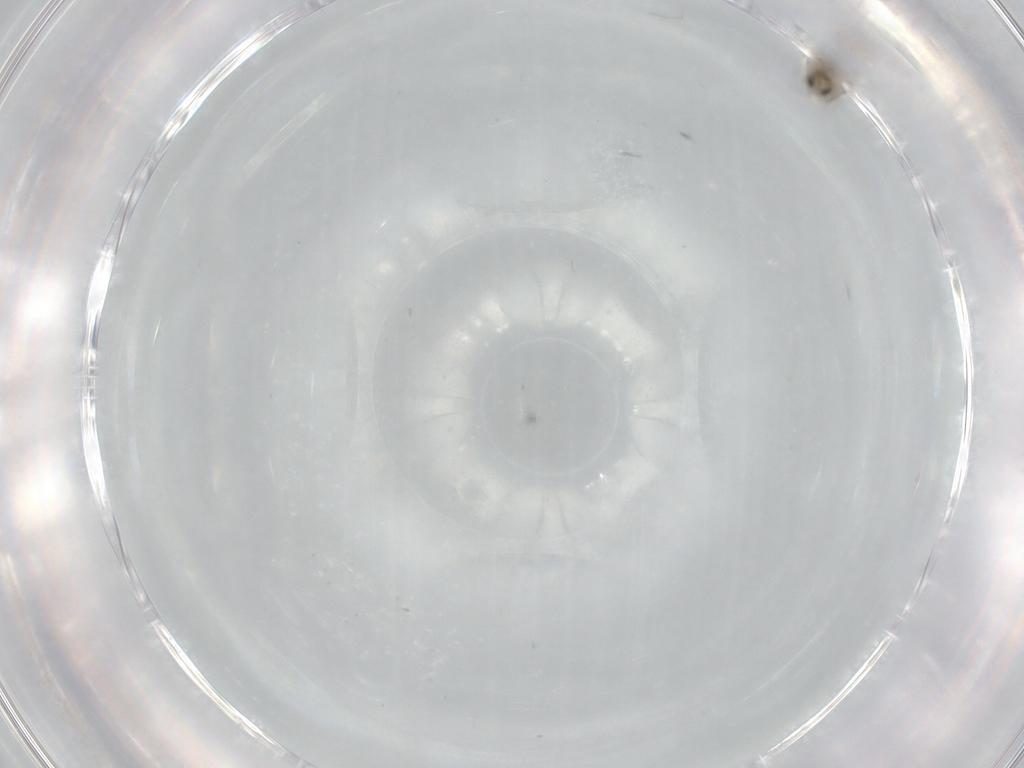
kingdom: Animalia
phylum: Arthropoda
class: Insecta
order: Diptera
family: Cecidomyiidae
